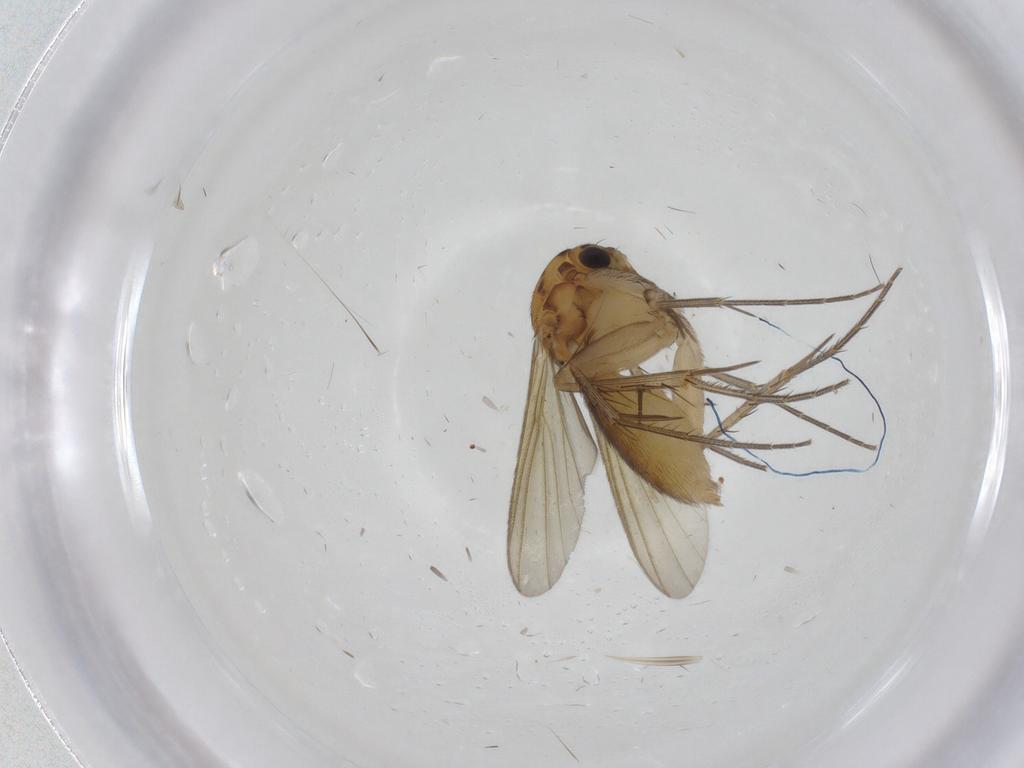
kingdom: Animalia
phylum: Arthropoda
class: Insecta
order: Diptera
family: Mycetophilidae
